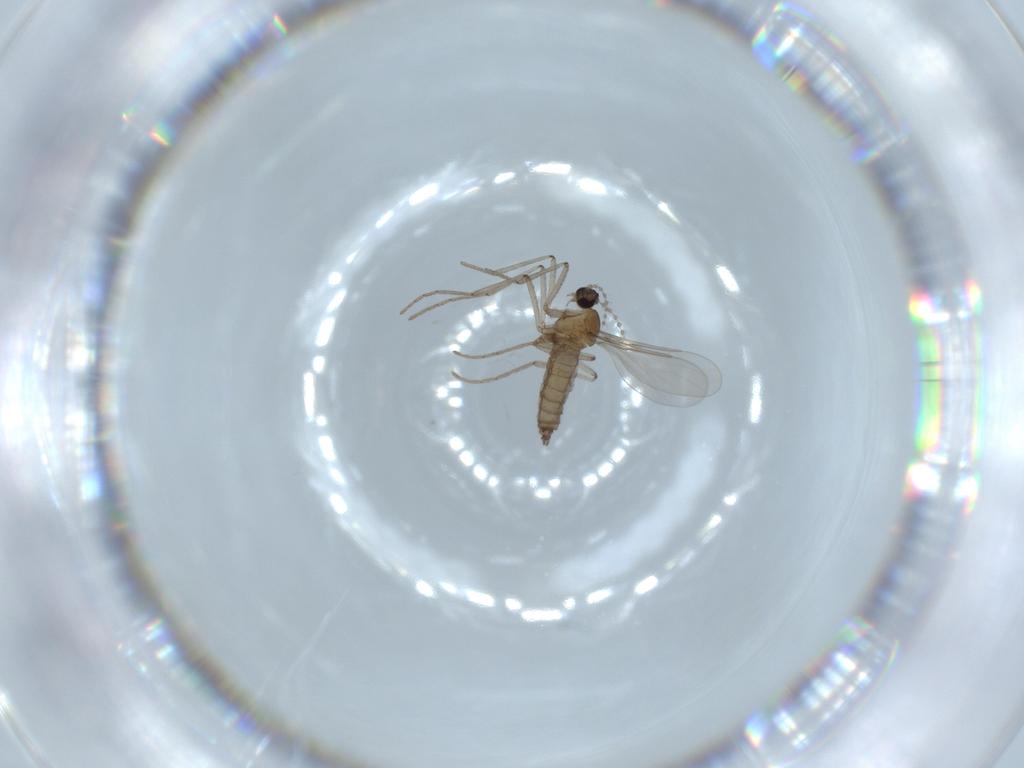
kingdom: Animalia
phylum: Arthropoda
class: Insecta
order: Diptera
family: Cecidomyiidae
